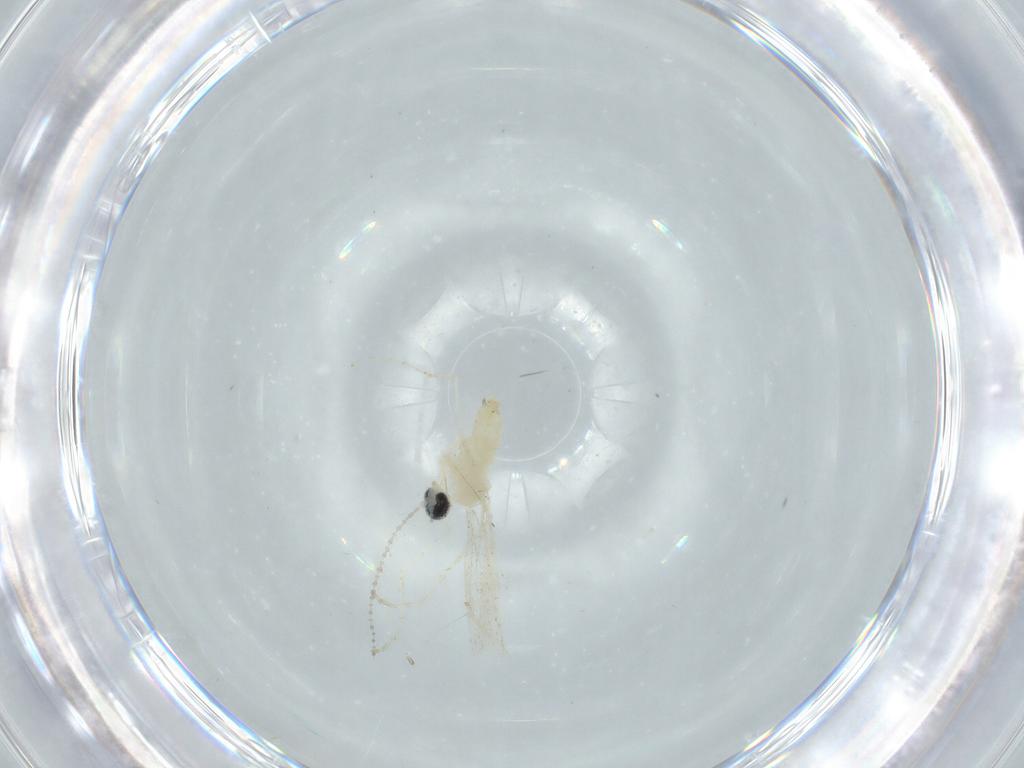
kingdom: Animalia
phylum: Arthropoda
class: Insecta
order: Diptera
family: Cecidomyiidae
